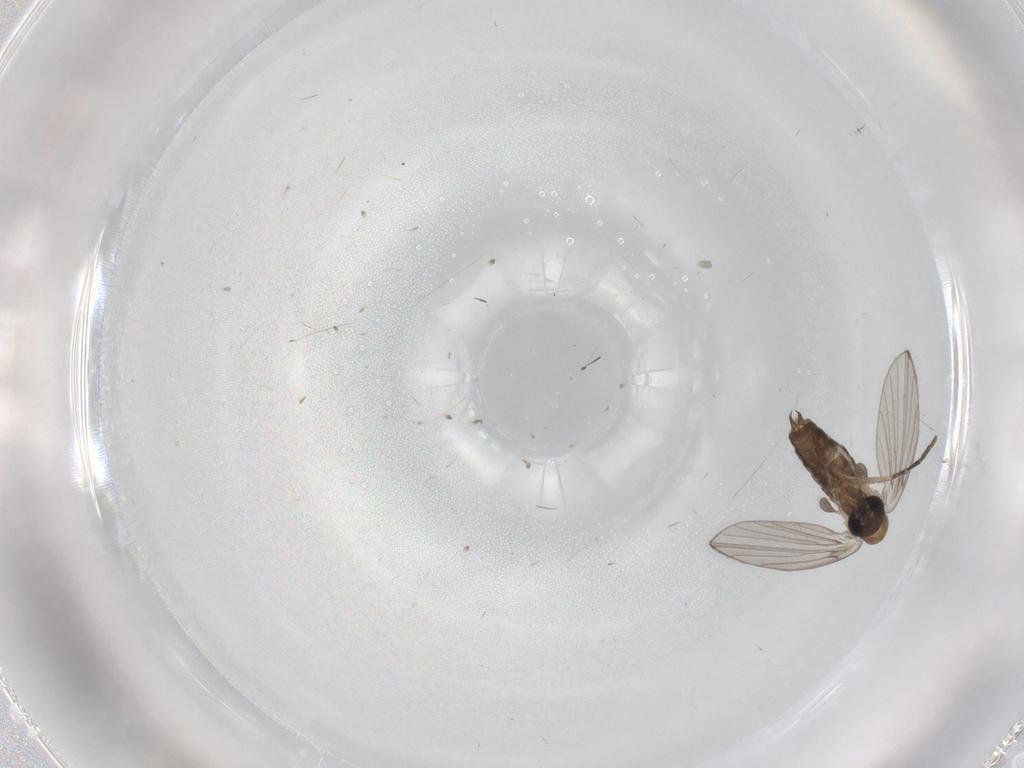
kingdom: Animalia
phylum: Arthropoda
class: Insecta
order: Diptera
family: Psychodidae
